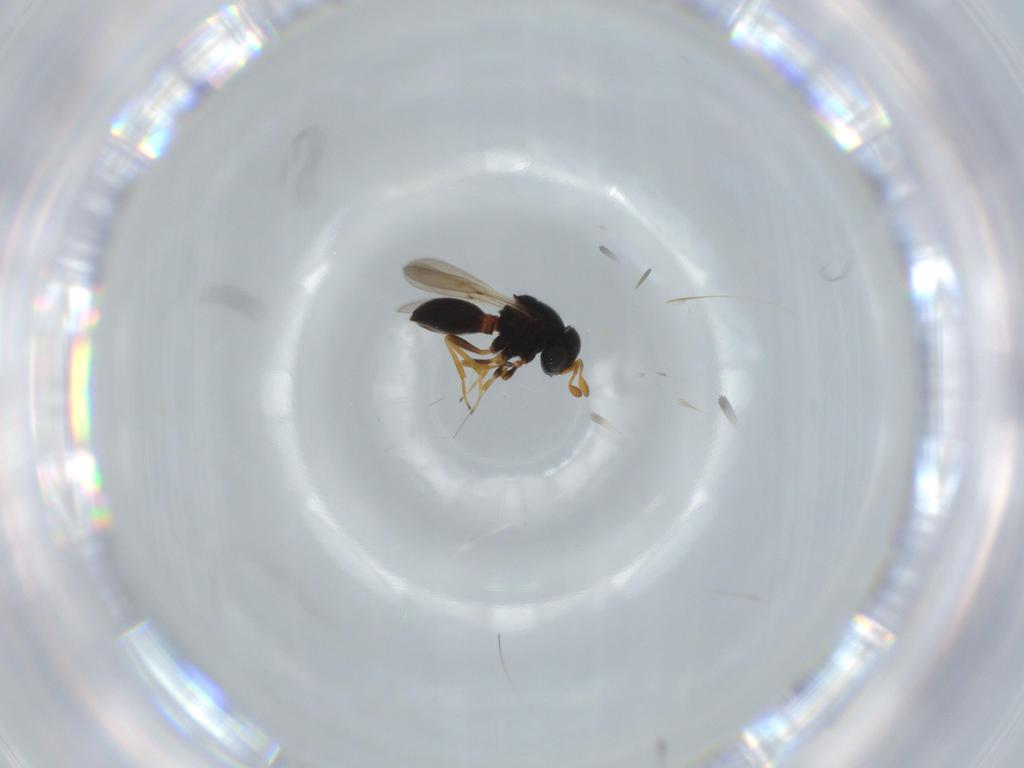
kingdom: Animalia
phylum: Arthropoda
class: Insecta
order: Hymenoptera
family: Scelionidae
